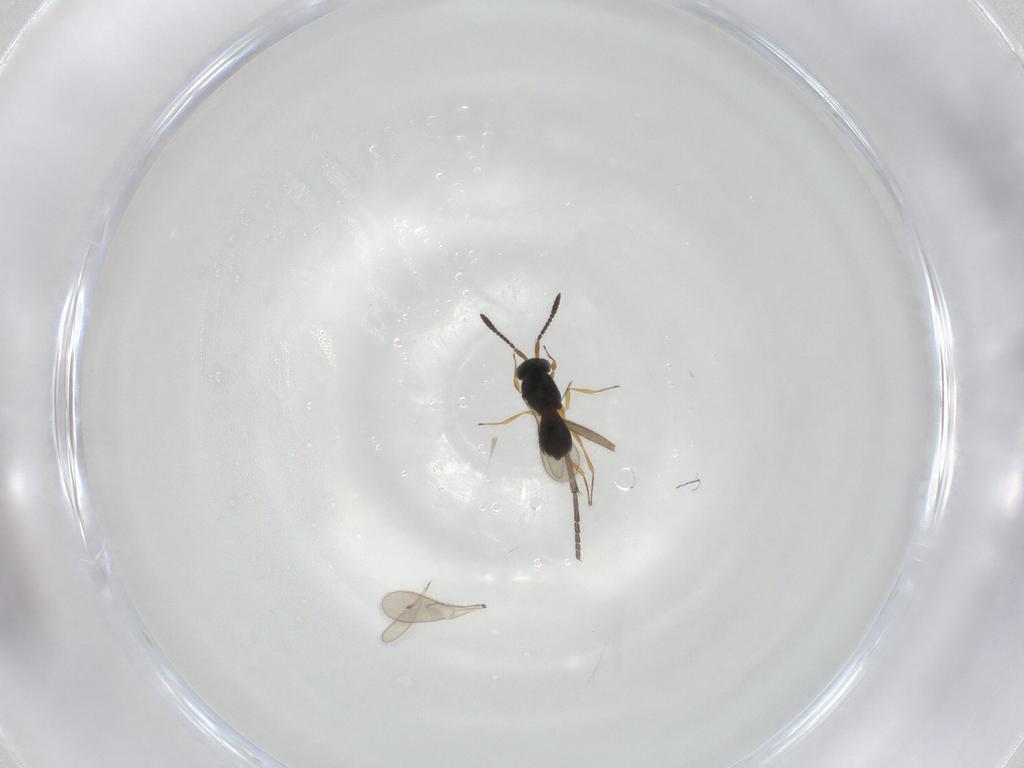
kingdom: Animalia
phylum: Arthropoda
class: Insecta
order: Hymenoptera
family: Scelionidae
